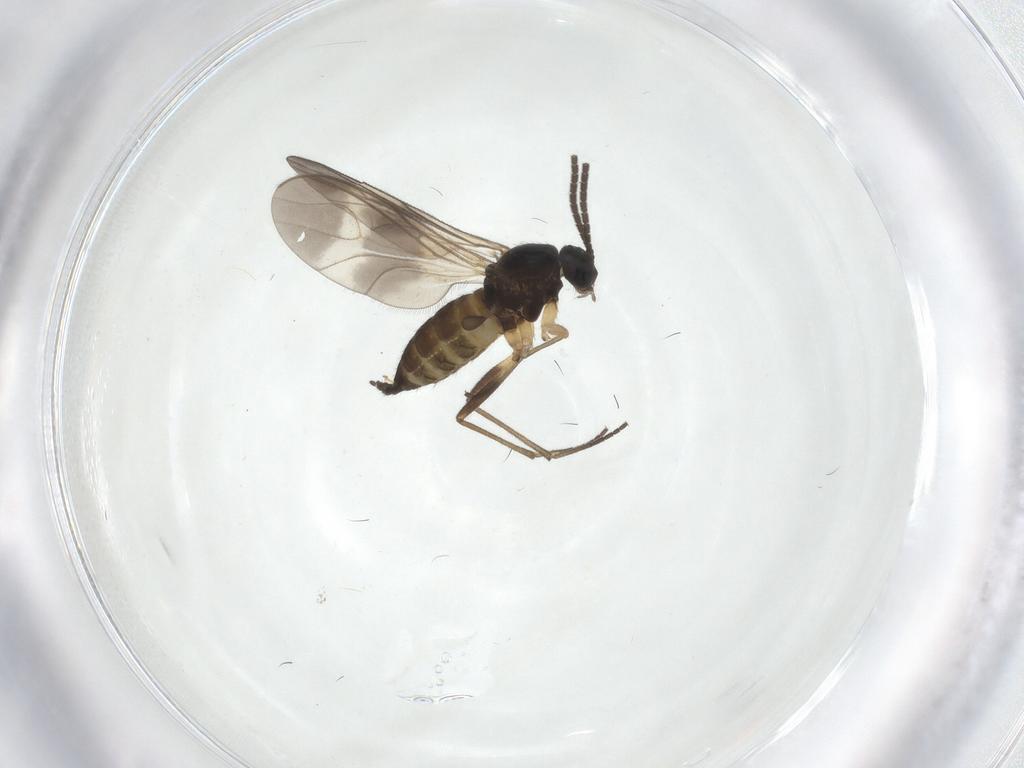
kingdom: Animalia
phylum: Arthropoda
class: Insecta
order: Diptera
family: Sciaridae
